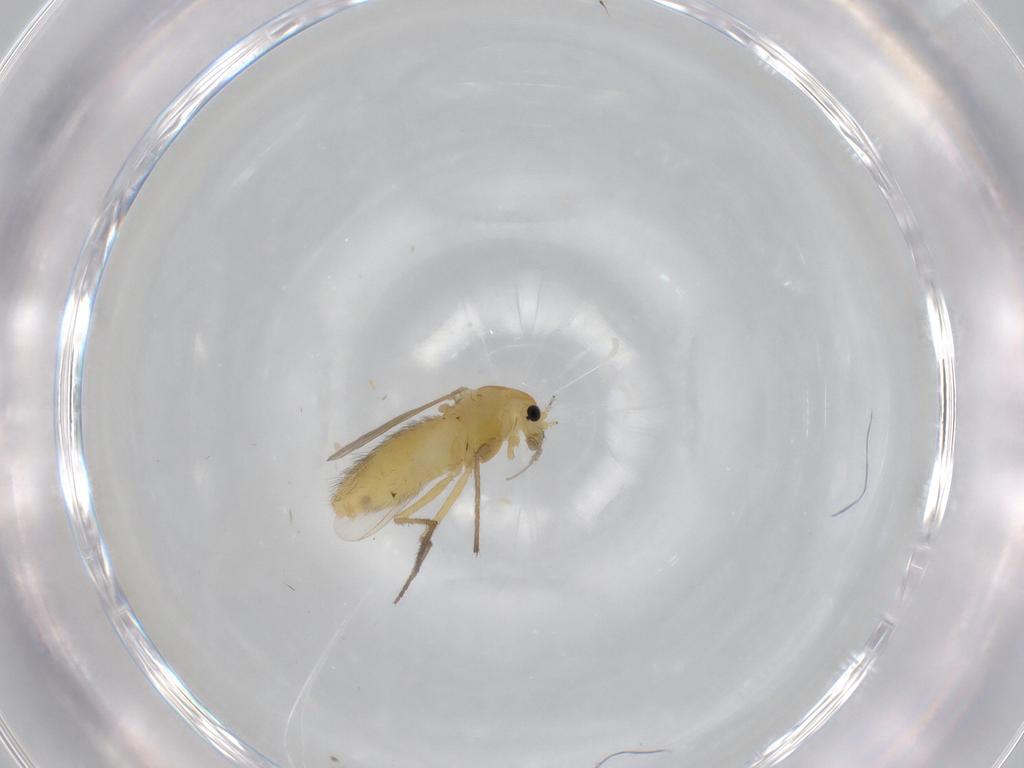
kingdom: Animalia
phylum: Arthropoda
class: Insecta
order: Diptera
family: Chironomidae
